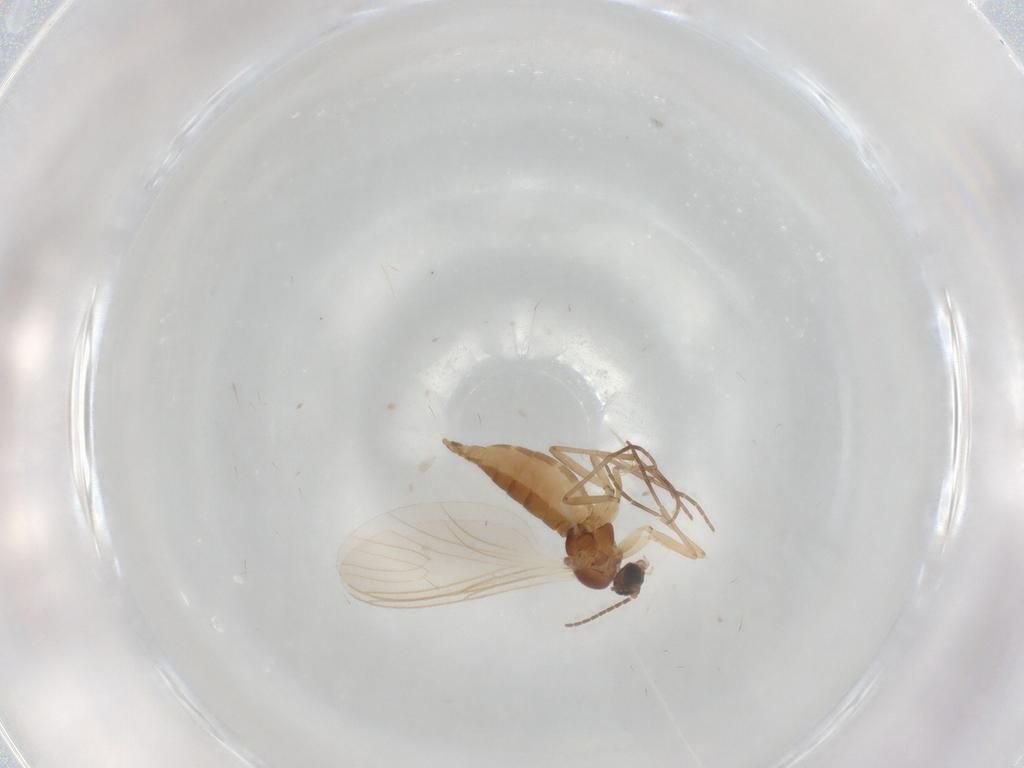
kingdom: Animalia
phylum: Arthropoda
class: Insecta
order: Diptera
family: Sciaridae
